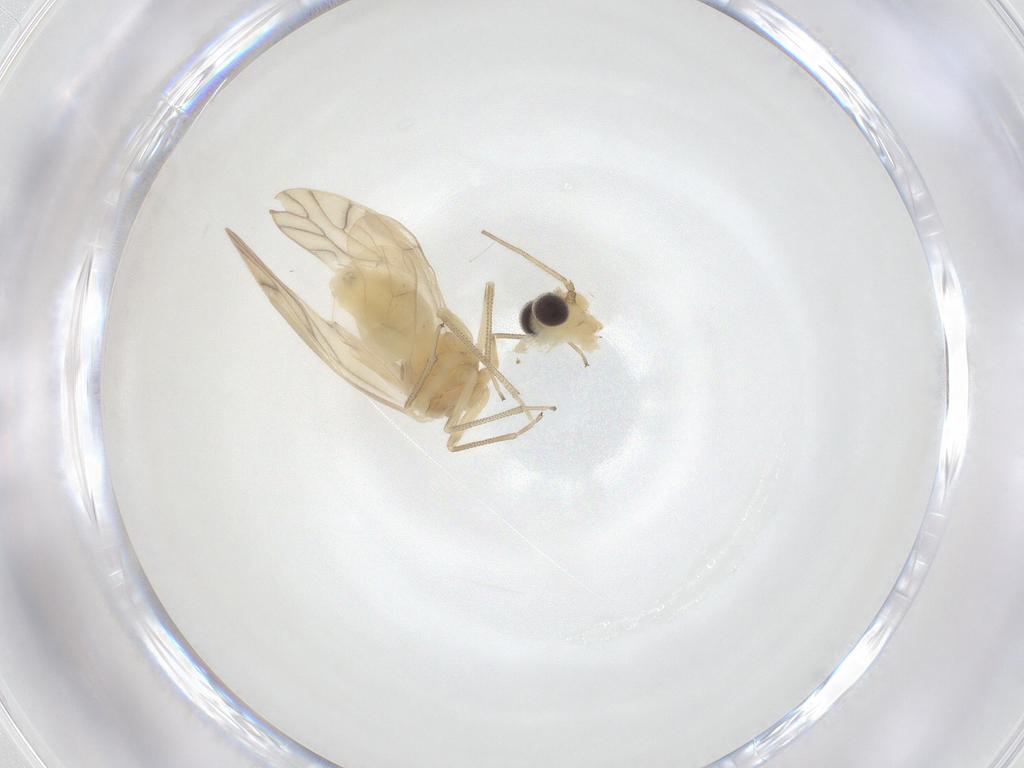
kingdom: Animalia
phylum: Arthropoda
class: Insecta
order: Psocodea
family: Caeciliusidae
